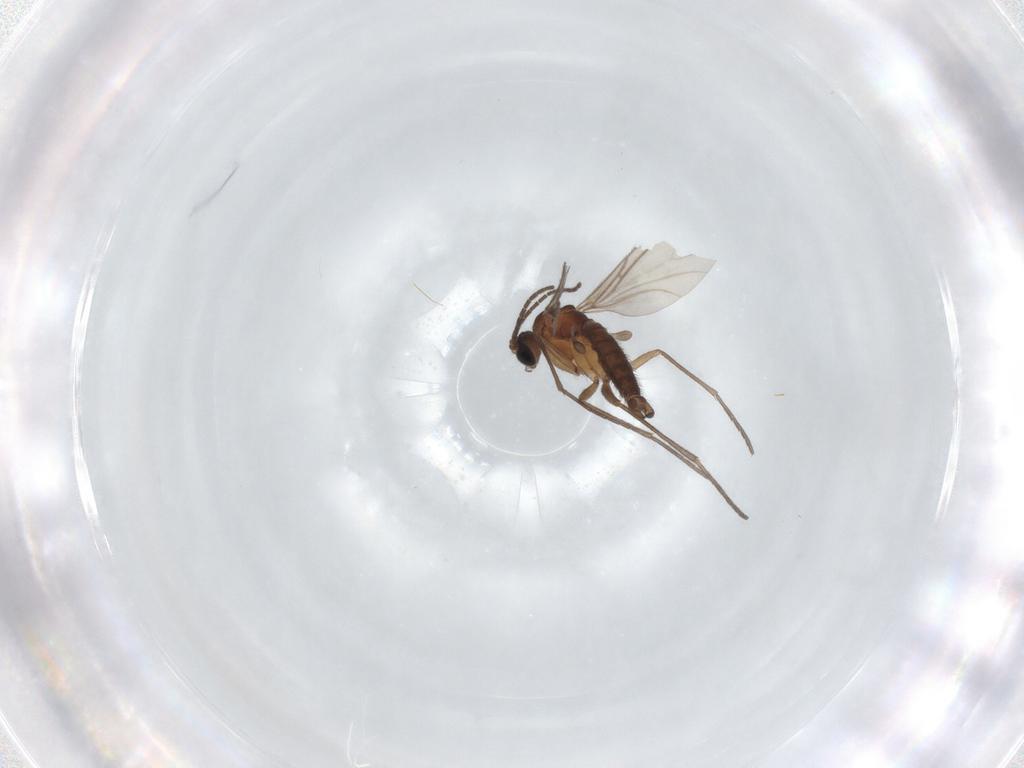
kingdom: Animalia
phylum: Arthropoda
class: Insecta
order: Diptera
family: Sciaridae
